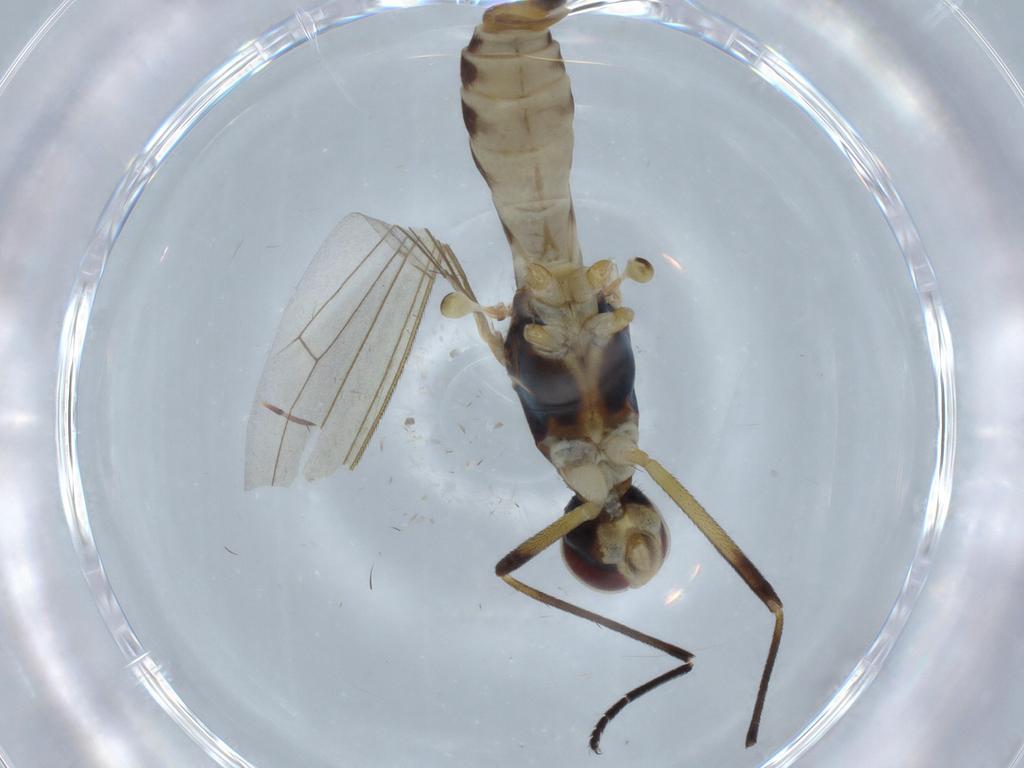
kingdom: Animalia
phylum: Arthropoda
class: Insecta
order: Diptera
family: Micropezidae
